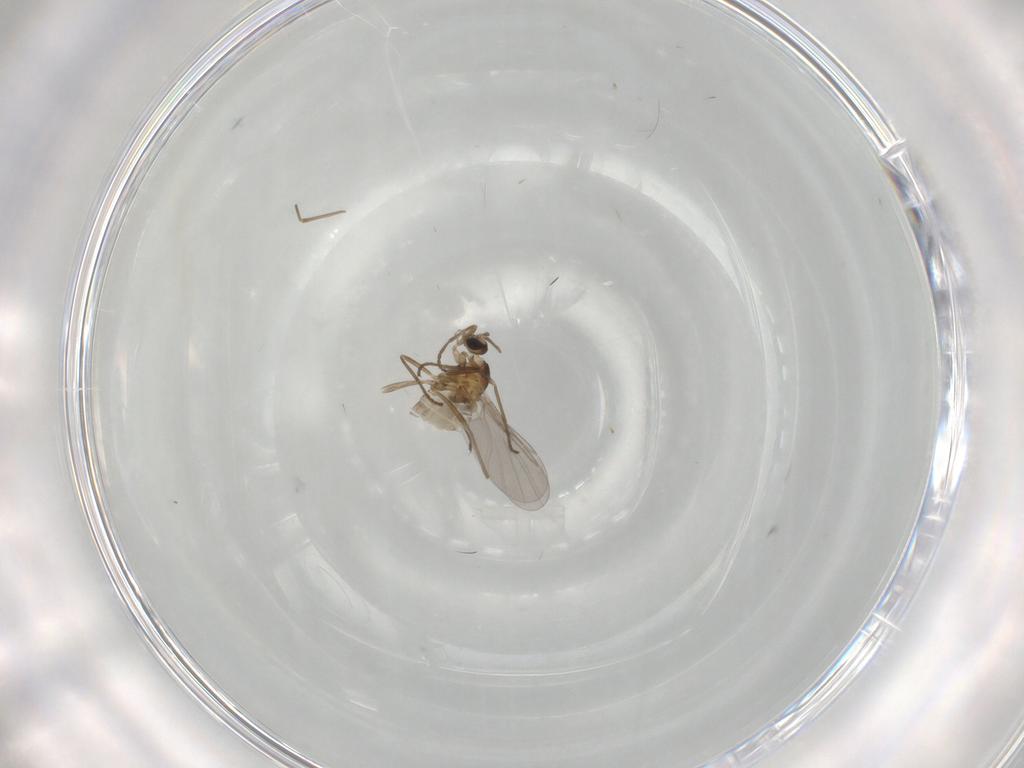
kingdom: Animalia
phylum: Arthropoda
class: Insecta
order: Diptera
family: Cecidomyiidae
